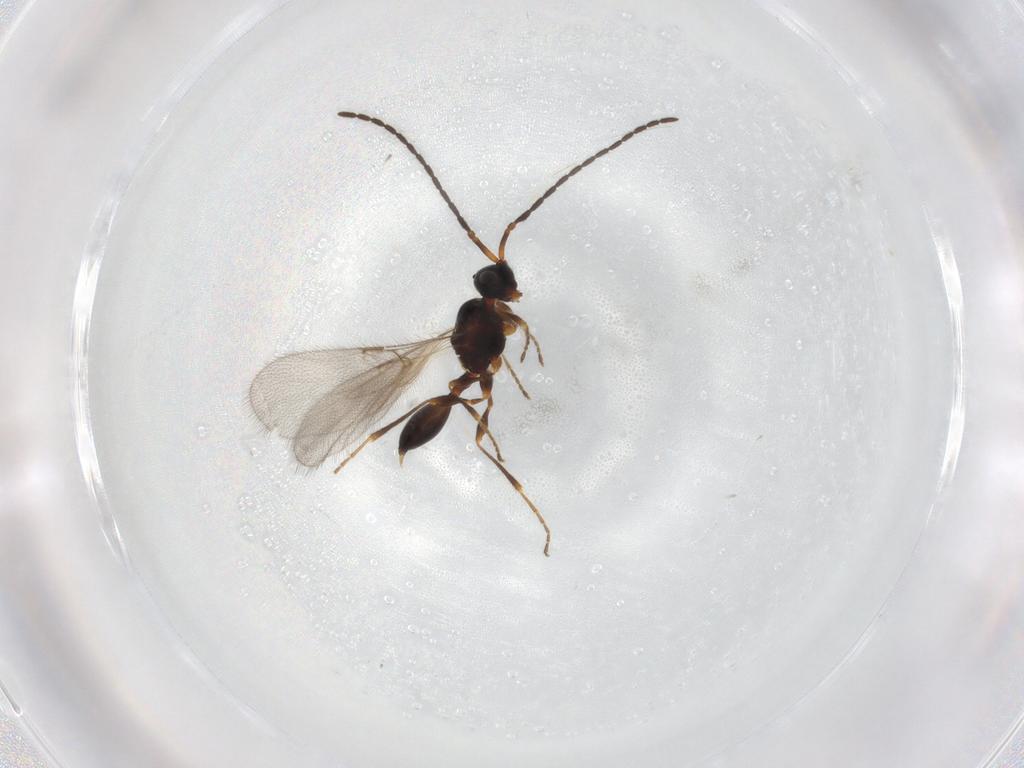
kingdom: Animalia
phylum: Arthropoda
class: Insecta
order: Hymenoptera
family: Diapriidae
